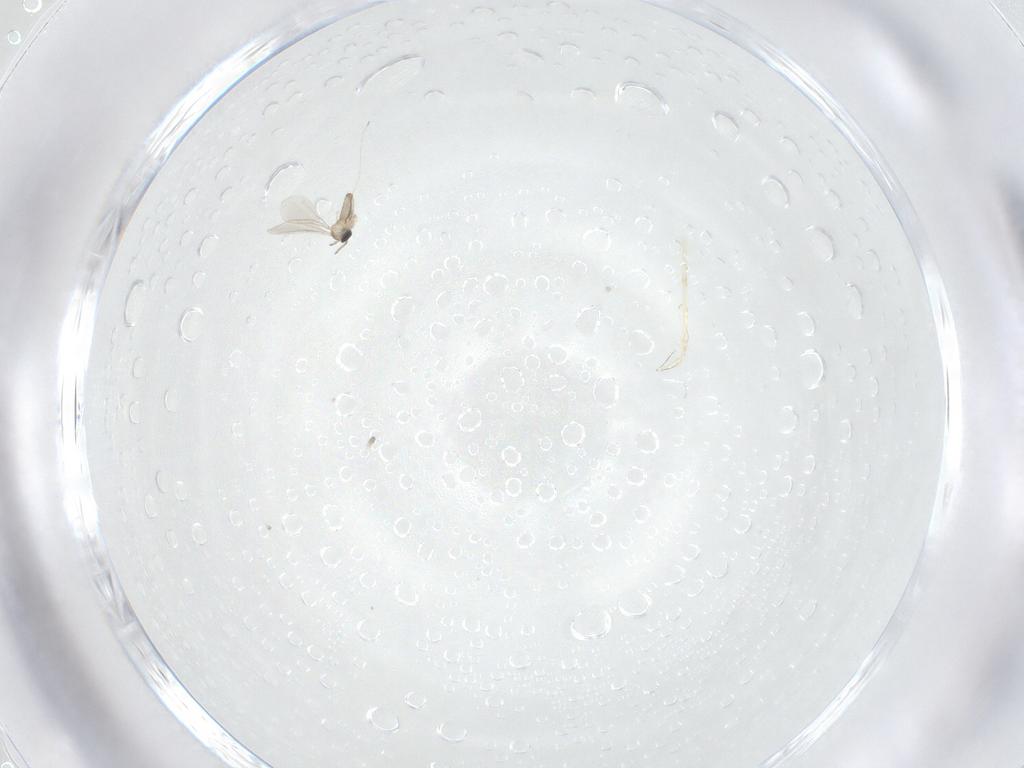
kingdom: Animalia
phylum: Arthropoda
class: Insecta
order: Diptera
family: Cecidomyiidae
